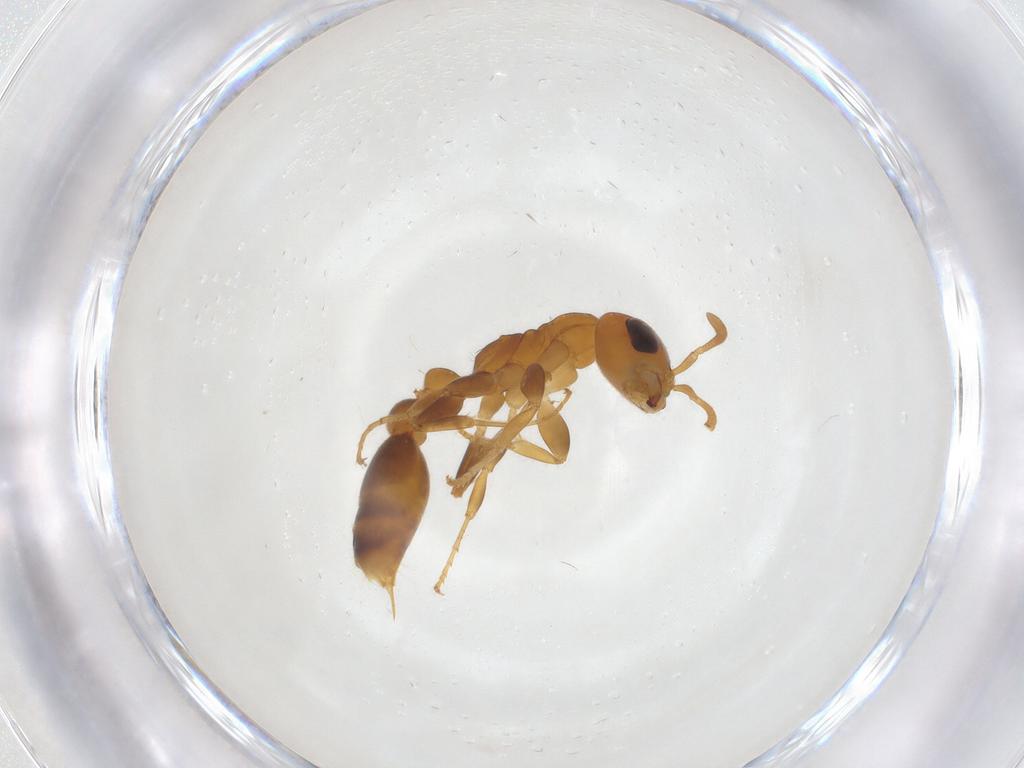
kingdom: Animalia
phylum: Arthropoda
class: Insecta
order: Hymenoptera
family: Formicidae
